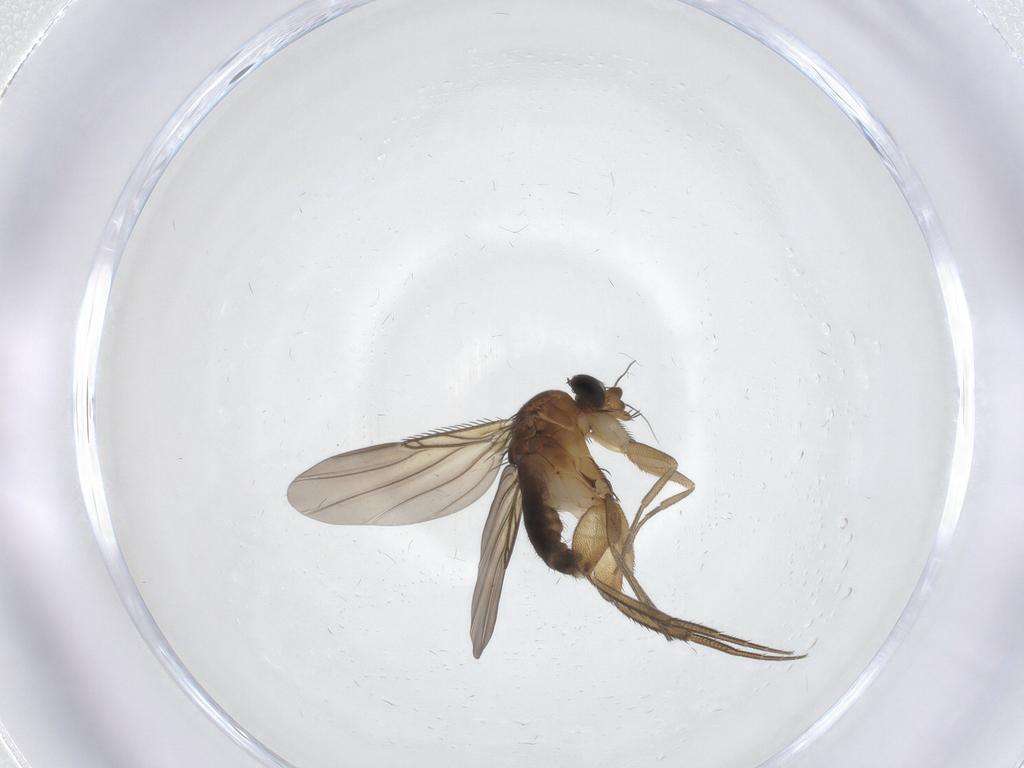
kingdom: Animalia
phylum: Arthropoda
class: Insecta
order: Diptera
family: Phoridae
